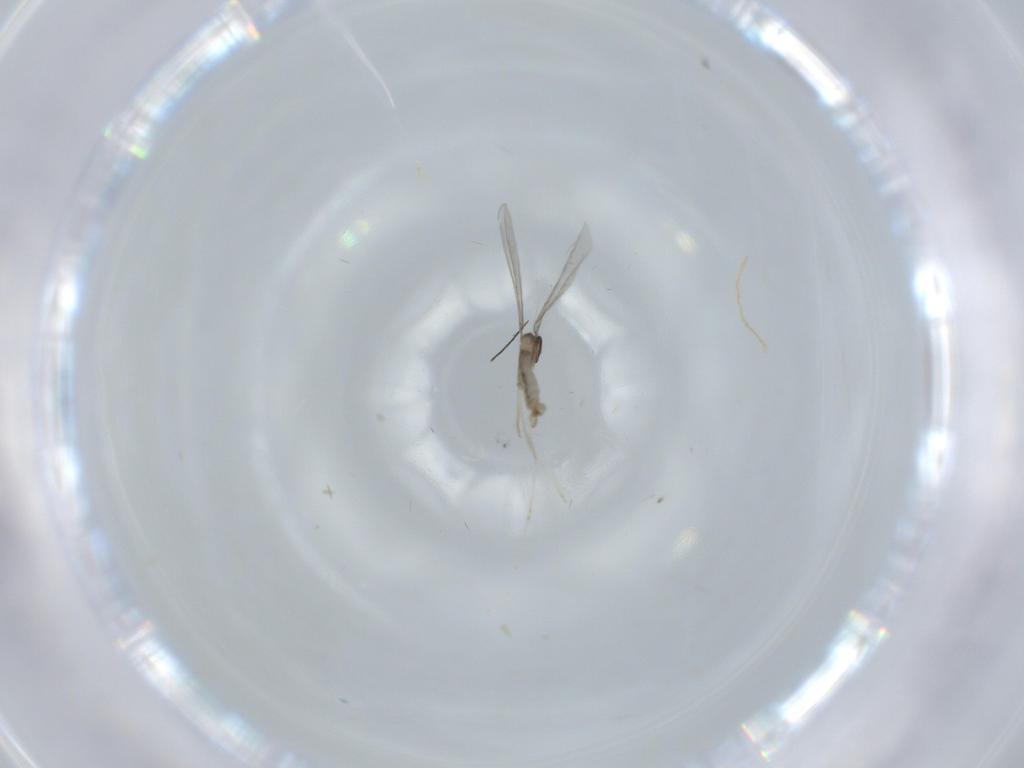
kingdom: Animalia
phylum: Arthropoda
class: Insecta
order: Diptera
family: Cecidomyiidae
